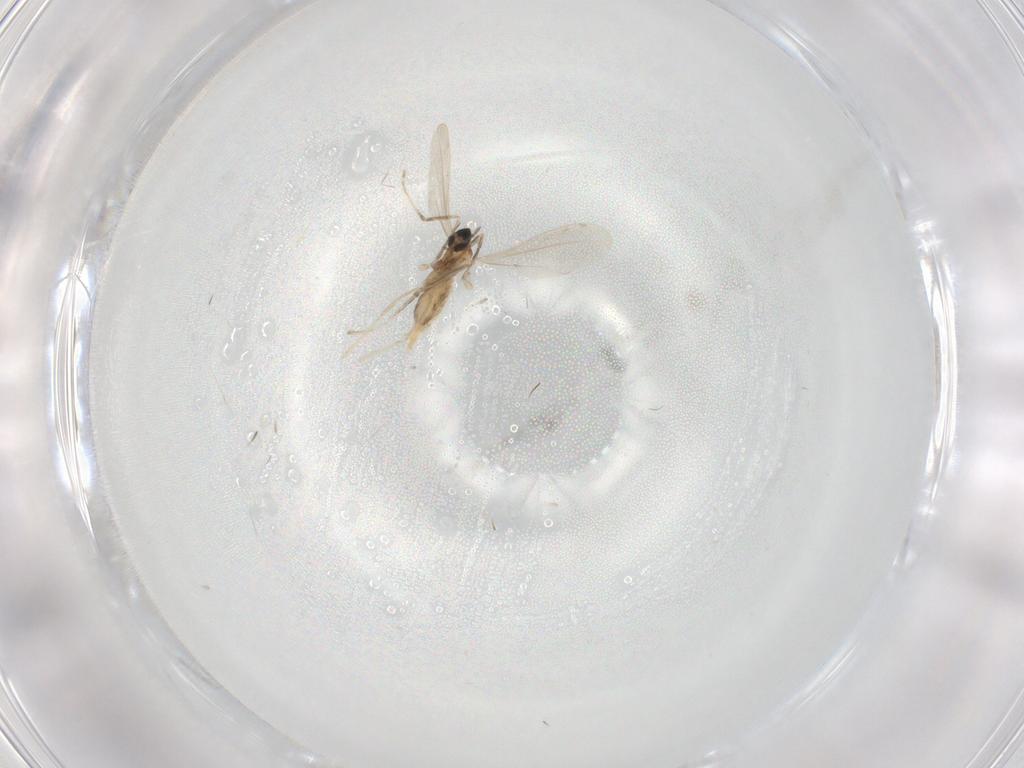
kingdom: Animalia
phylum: Arthropoda
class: Insecta
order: Diptera
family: Cecidomyiidae
